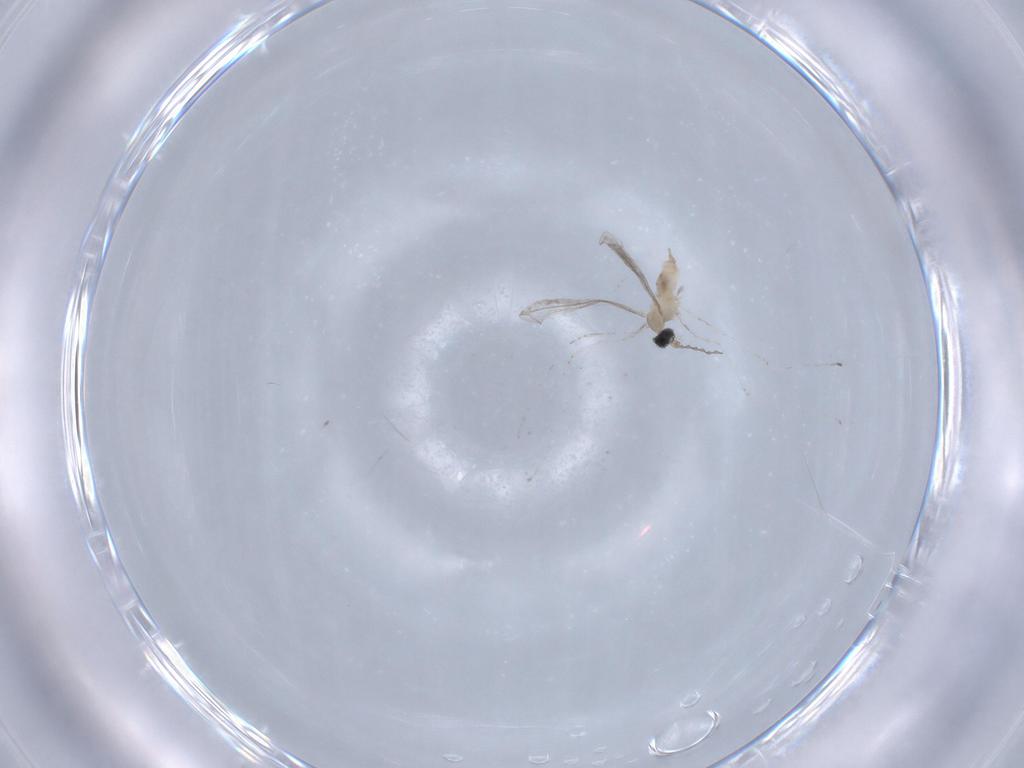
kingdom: Animalia
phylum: Arthropoda
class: Insecta
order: Diptera
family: Cecidomyiidae
